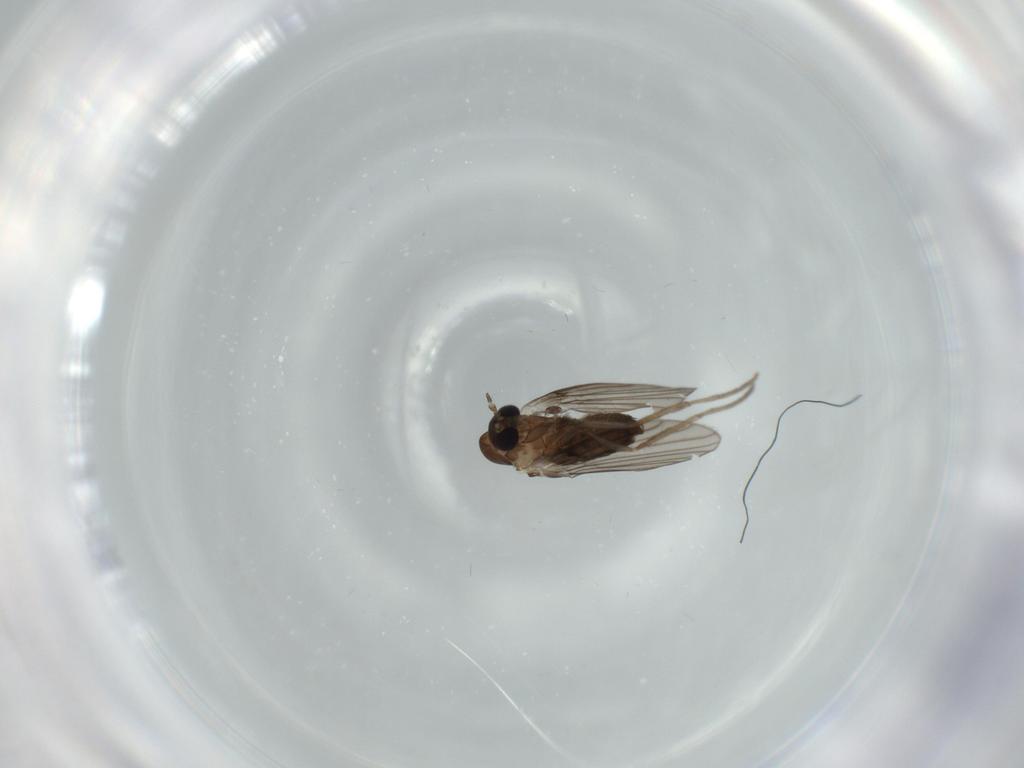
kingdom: Animalia
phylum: Arthropoda
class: Insecta
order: Diptera
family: Psychodidae
